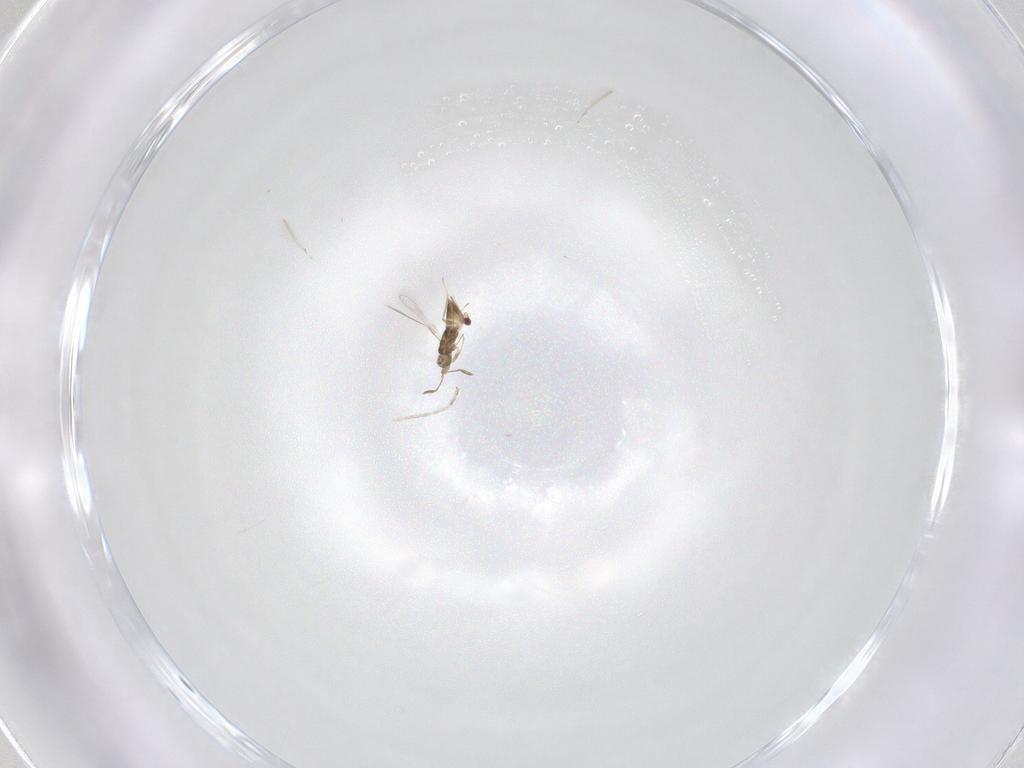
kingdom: Animalia
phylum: Arthropoda
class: Insecta
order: Hymenoptera
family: Mymaridae
